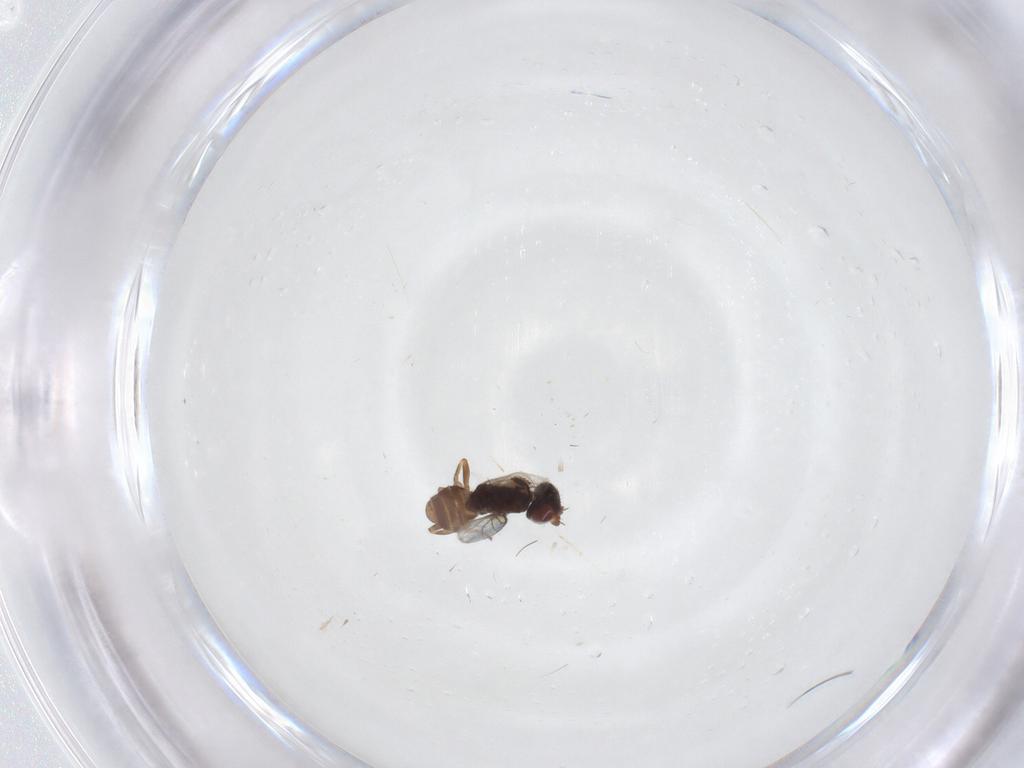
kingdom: Animalia
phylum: Arthropoda
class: Insecta
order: Diptera
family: Chloropidae
